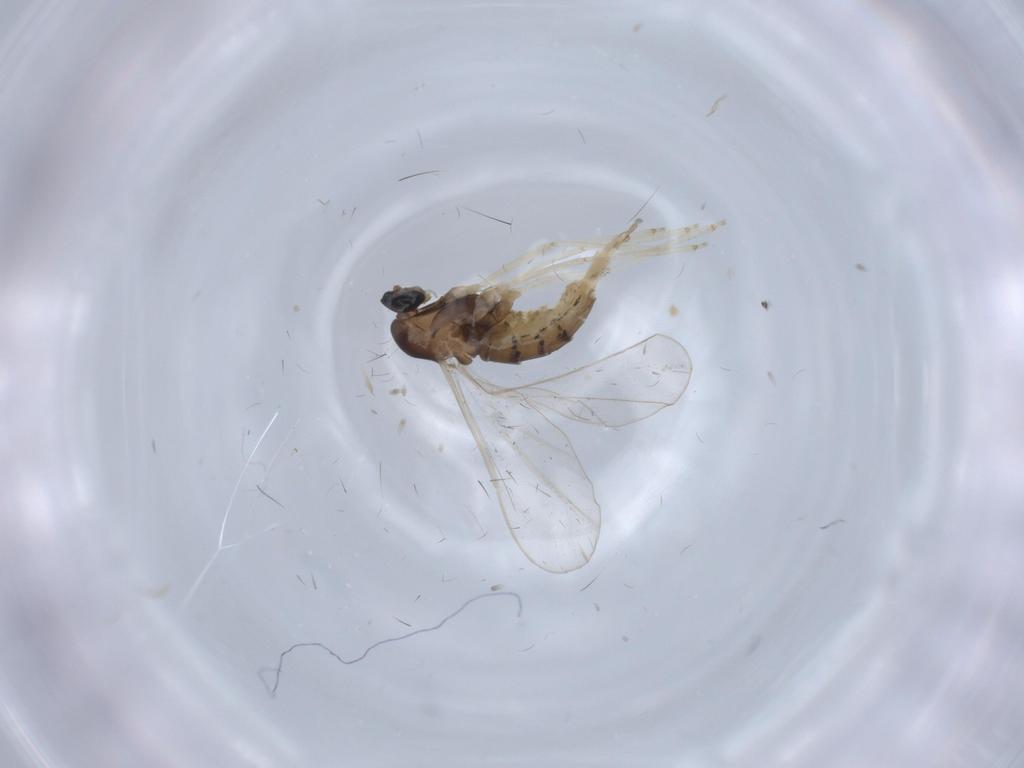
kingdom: Animalia
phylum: Arthropoda
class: Insecta
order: Diptera
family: Cecidomyiidae
